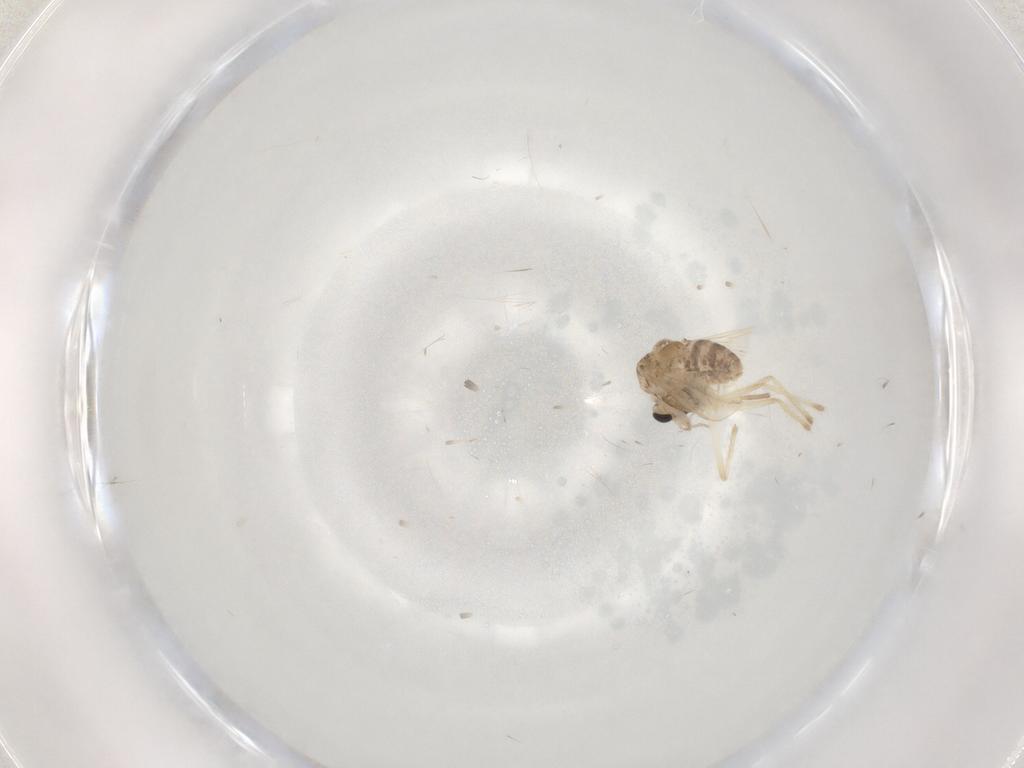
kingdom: Animalia
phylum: Arthropoda
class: Insecta
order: Diptera
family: Chironomidae
